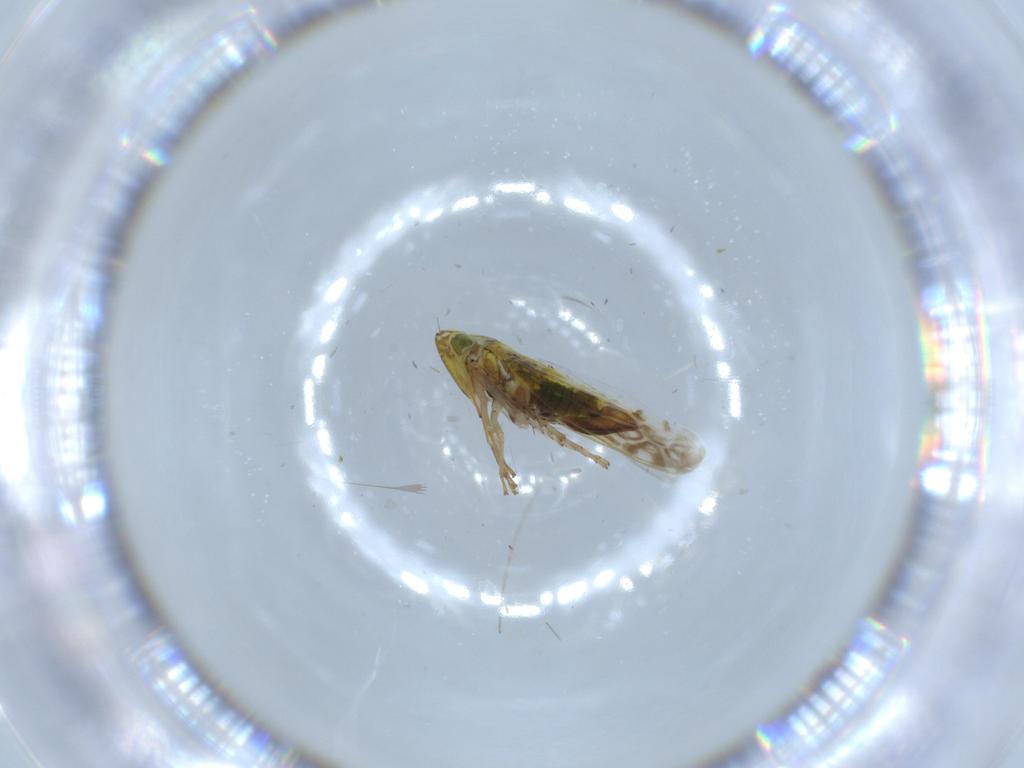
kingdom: Animalia
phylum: Arthropoda
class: Insecta
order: Hemiptera
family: Cicadellidae
